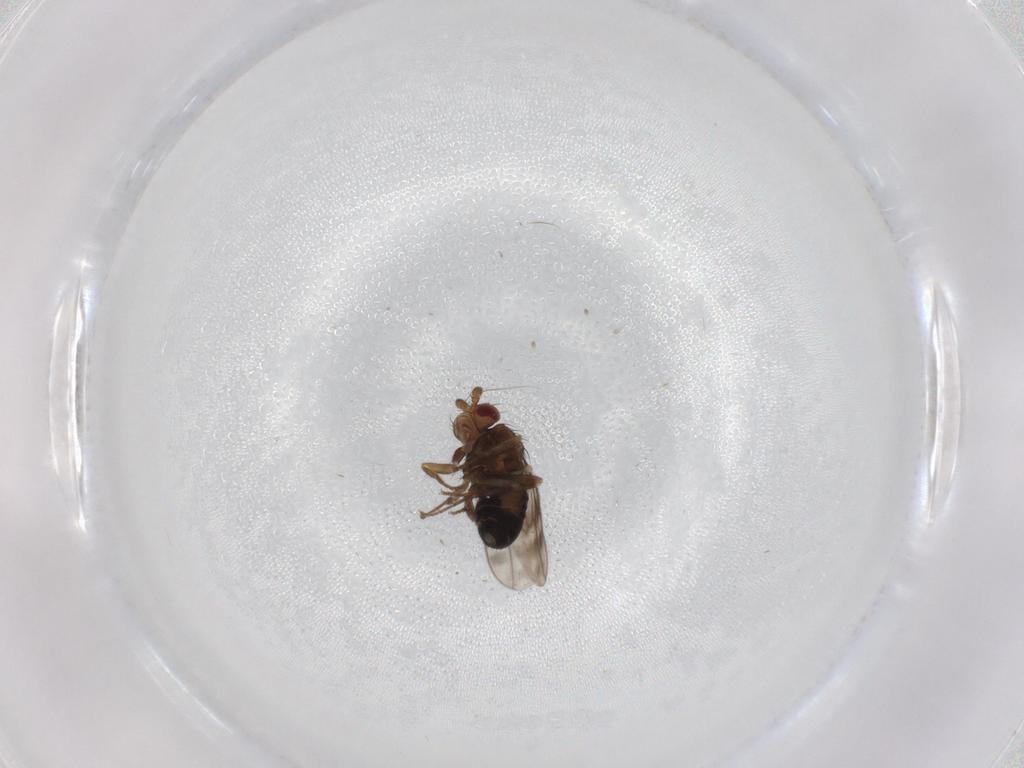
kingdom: Animalia
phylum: Arthropoda
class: Insecta
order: Diptera
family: Sphaeroceridae
